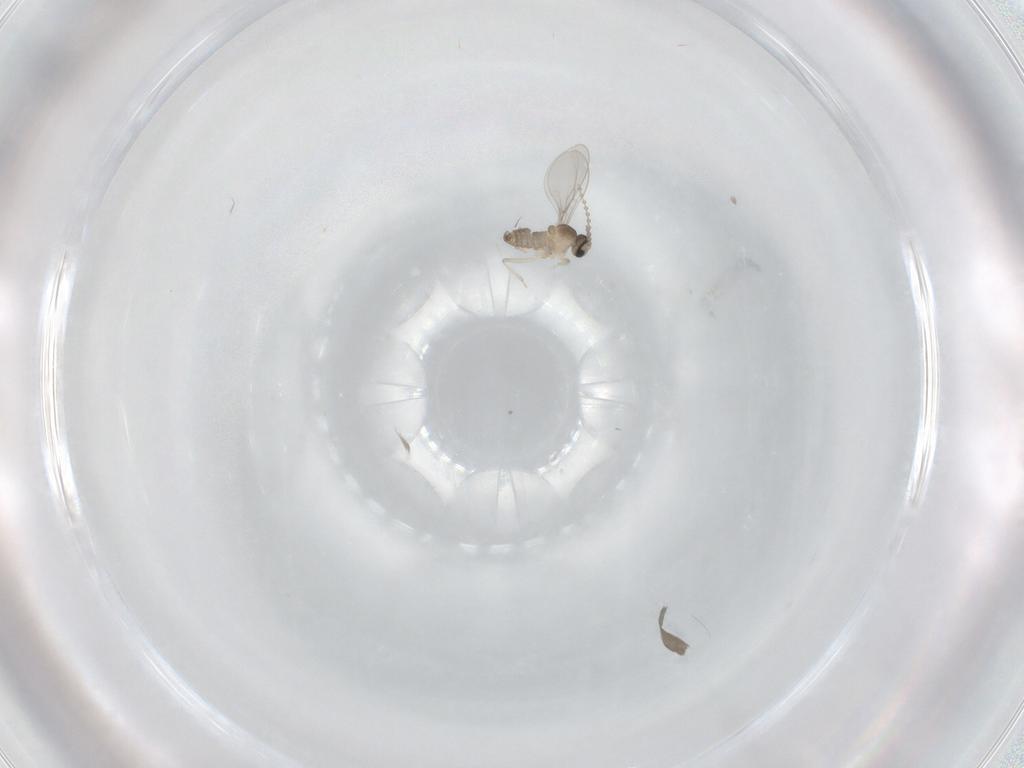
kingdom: Animalia
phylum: Arthropoda
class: Insecta
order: Diptera
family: Cecidomyiidae
